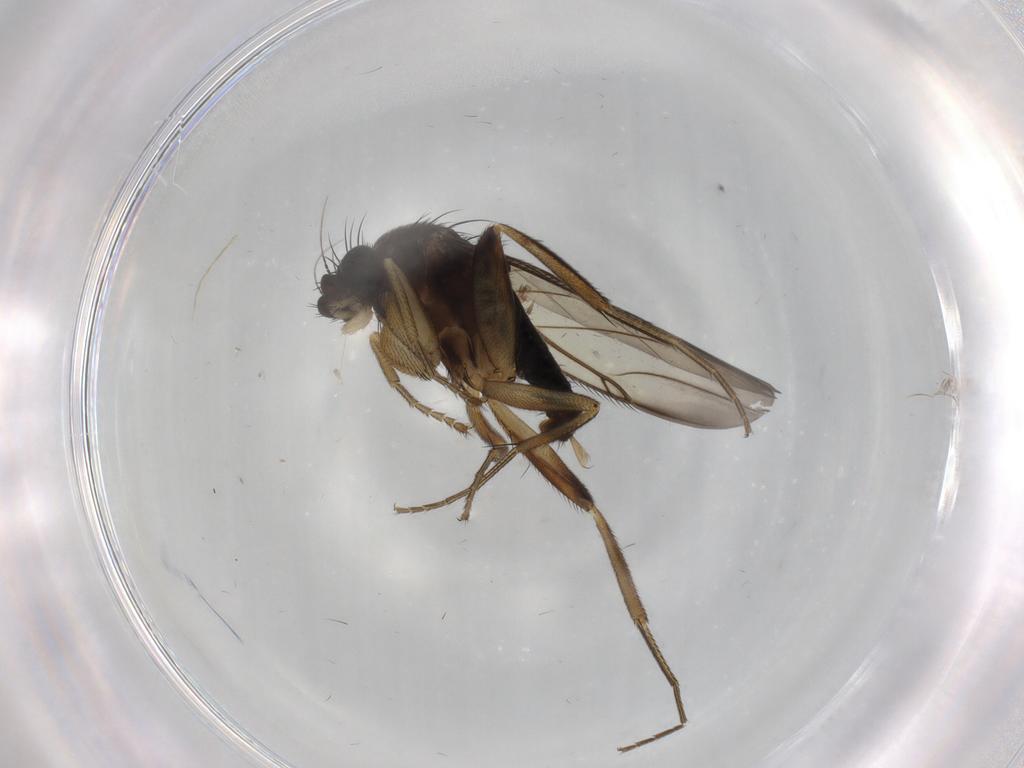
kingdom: Animalia
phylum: Arthropoda
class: Insecta
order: Diptera
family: Phoridae
